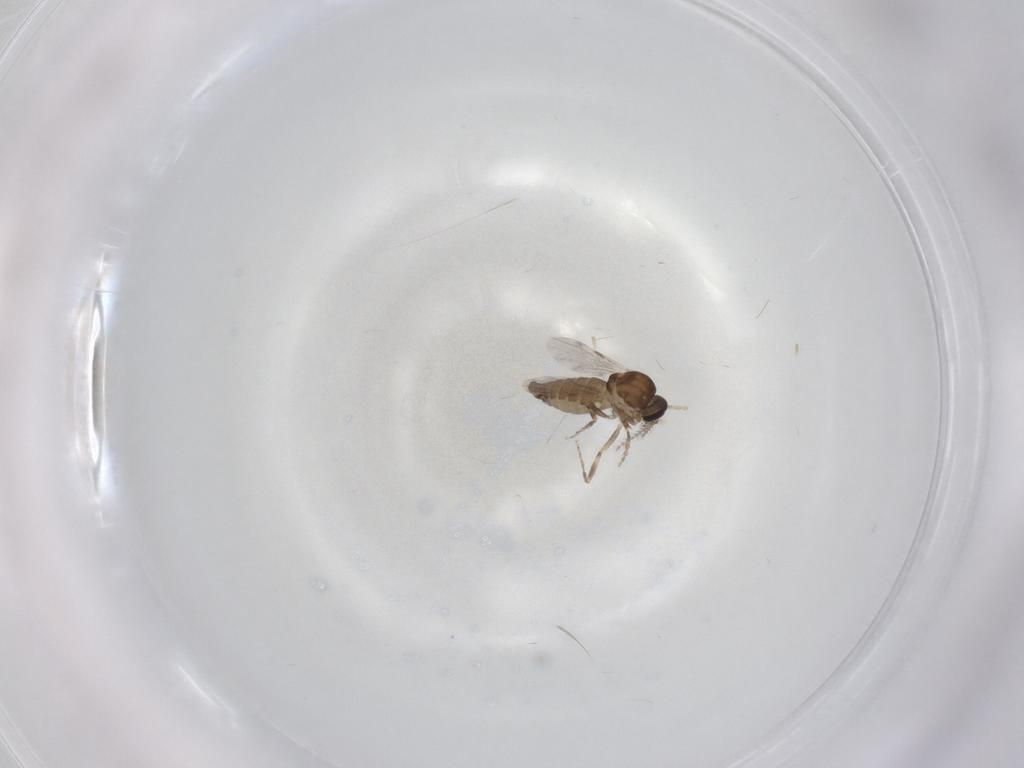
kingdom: Animalia
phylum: Arthropoda
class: Insecta
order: Diptera
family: Ceratopogonidae
